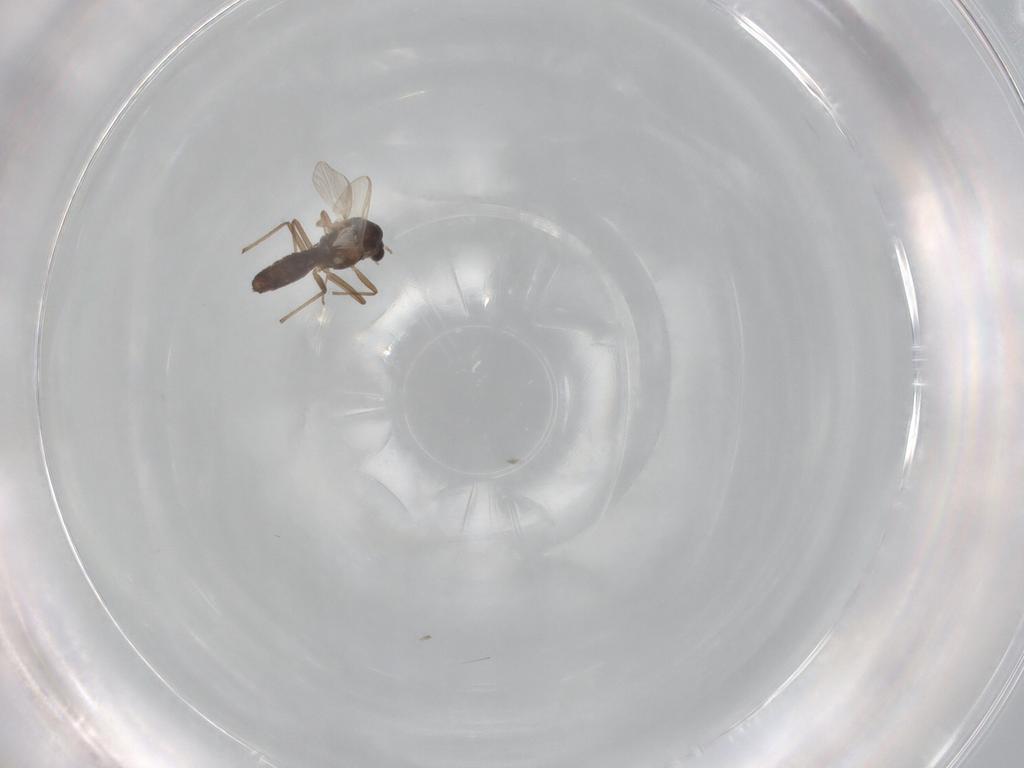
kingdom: Animalia
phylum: Arthropoda
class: Insecta
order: Diptera
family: Chironomidae
